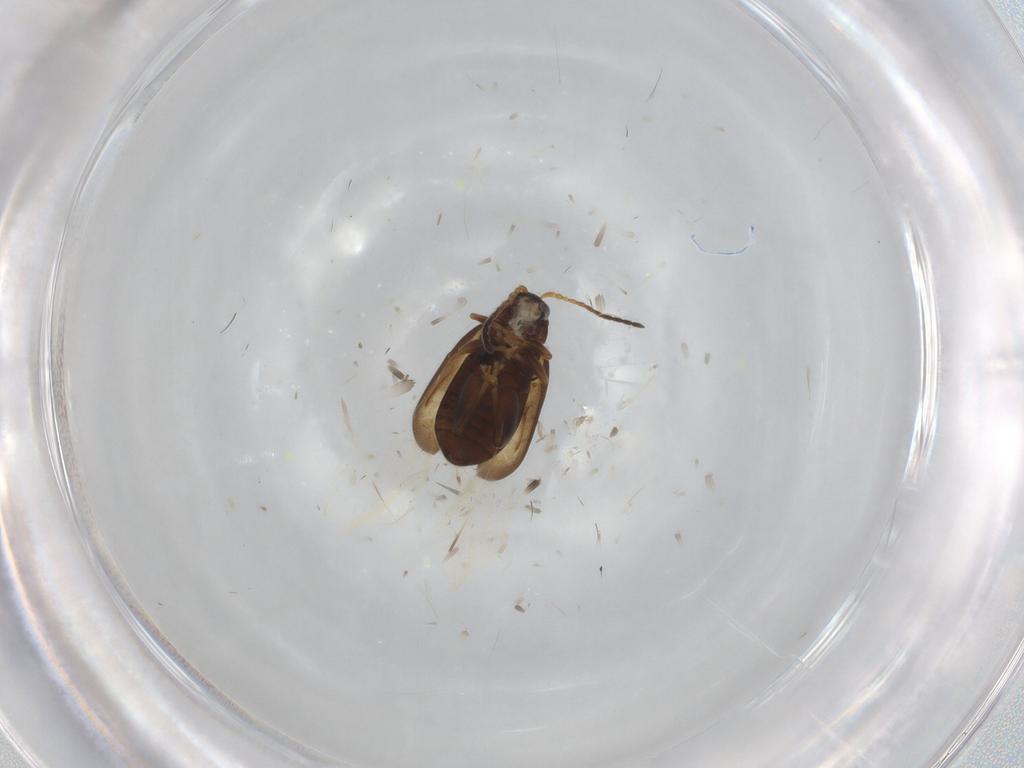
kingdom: Animalia
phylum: Arthropoda
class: Insecta
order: Coleoptera
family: Chrysomelidae
